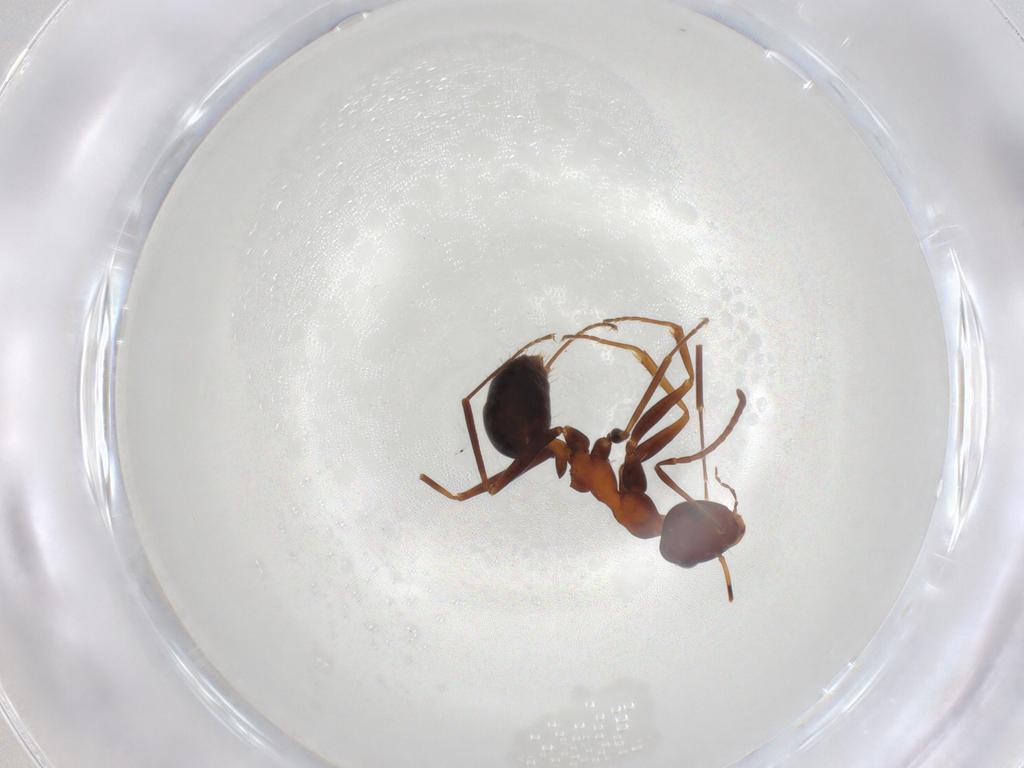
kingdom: Animalia
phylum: Arthropoda
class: Insecta
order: Hymenoptera
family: Formicidae
